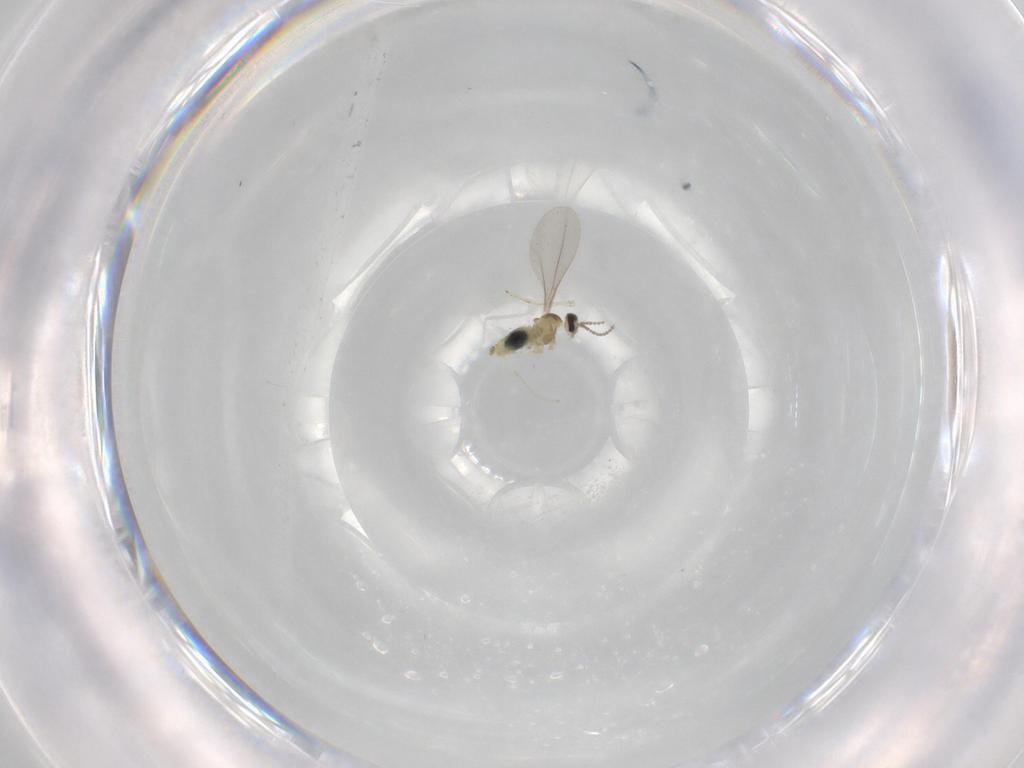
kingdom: Animalia
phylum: Arthropoda
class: Insecta
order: Diptera
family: Cecidomyiidae
